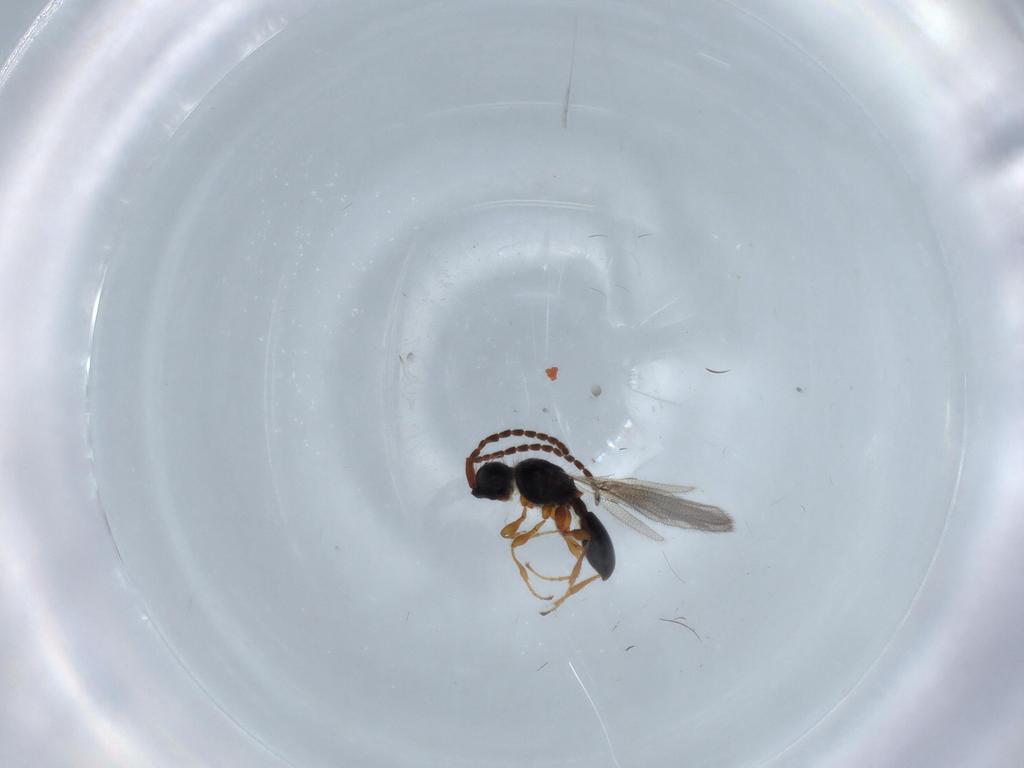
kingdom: Animalia
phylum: Arthropoda
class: Insecta
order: Hymenoptera
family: Diapriidae
